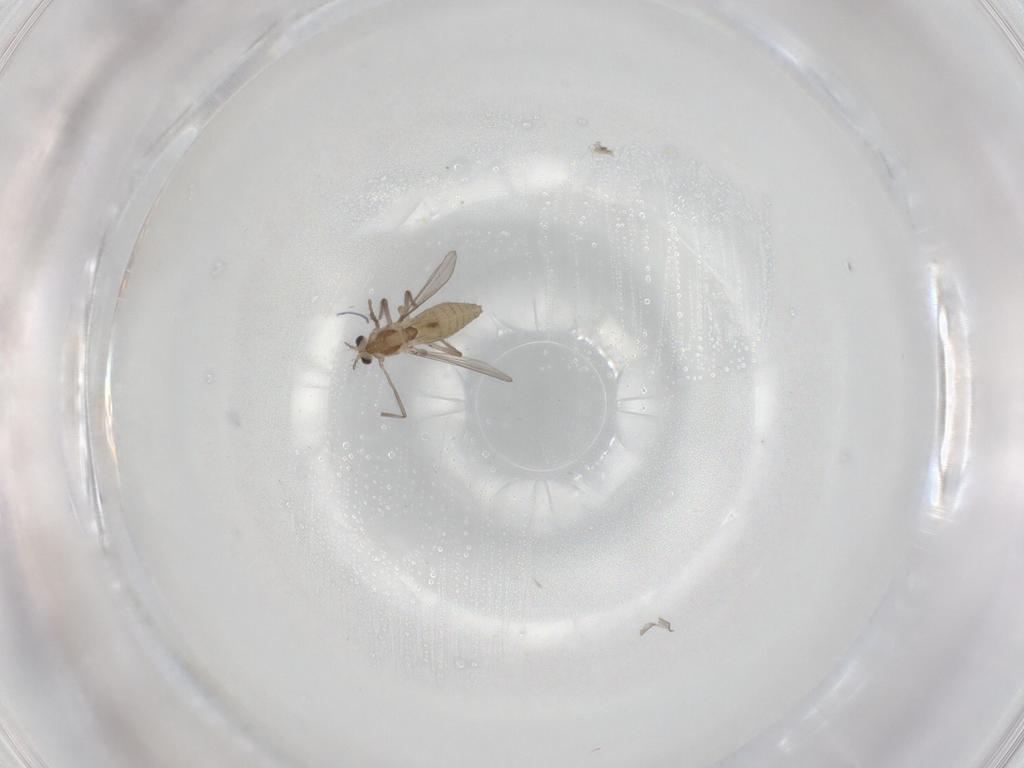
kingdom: Animalia
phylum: Arthropoda
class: Insecta
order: Diptera
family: Chironomidae
